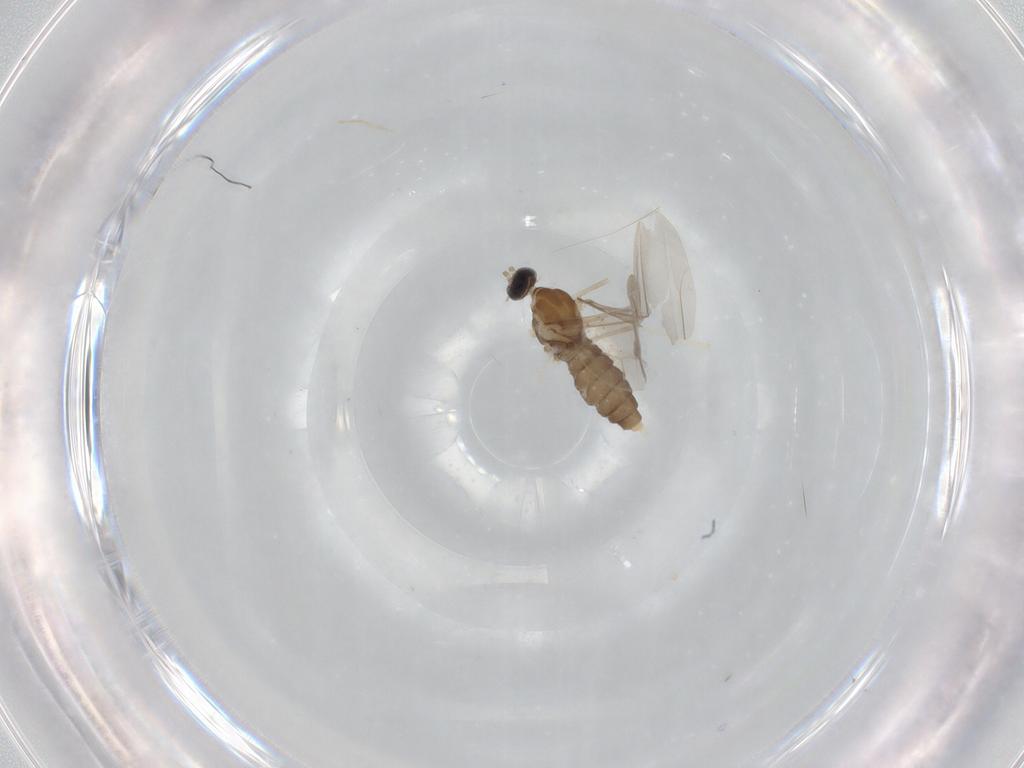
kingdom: Animalia
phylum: Arthropoda
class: Insecta
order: Diptera
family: Cecidomyiidae
